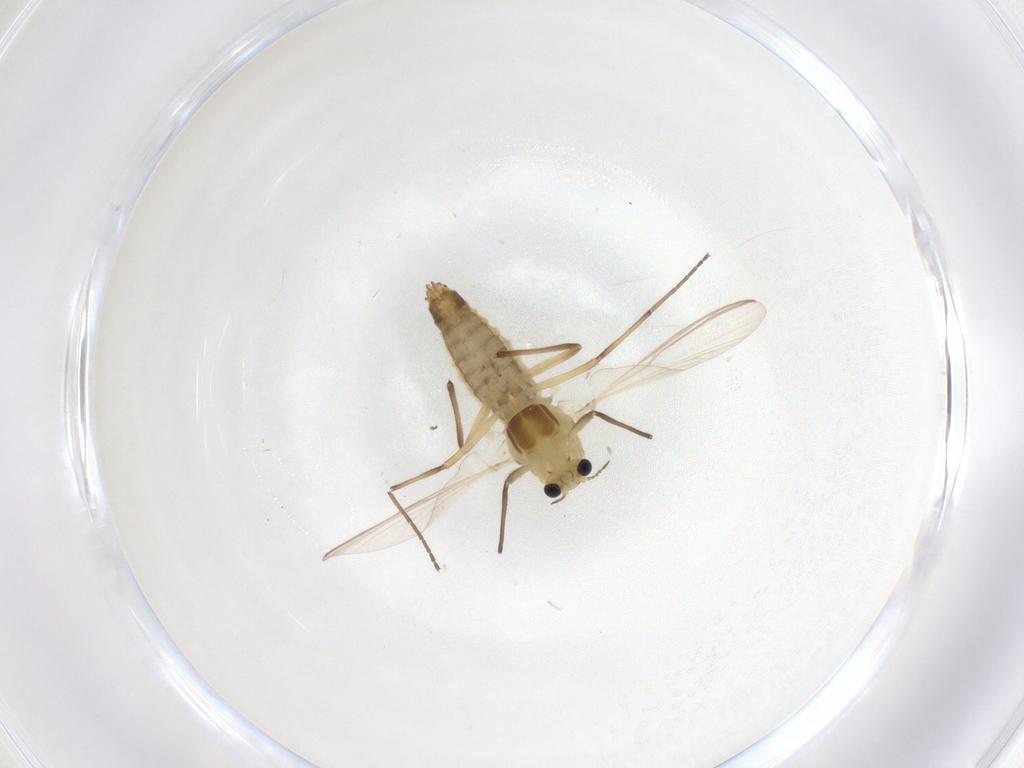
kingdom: Animalia
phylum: Arthropoda
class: Insecta
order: Diptera
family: Chironomidae
